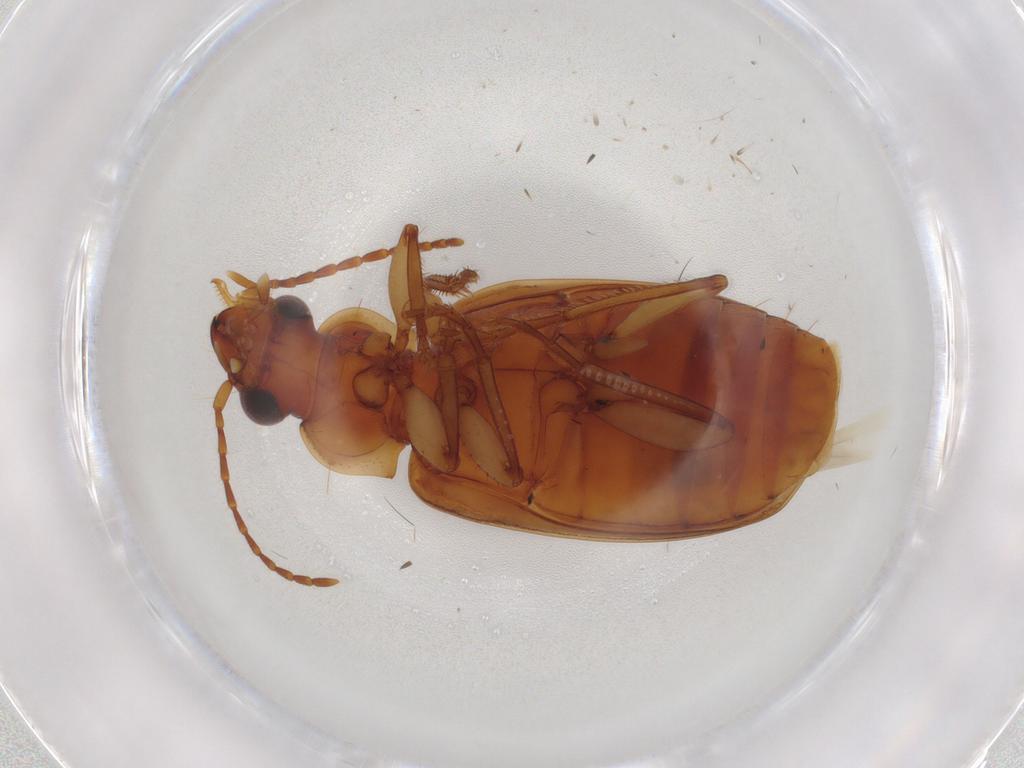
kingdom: Animalia
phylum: Arthropoda
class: Insecta
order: Coleoptera
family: Carabidae
